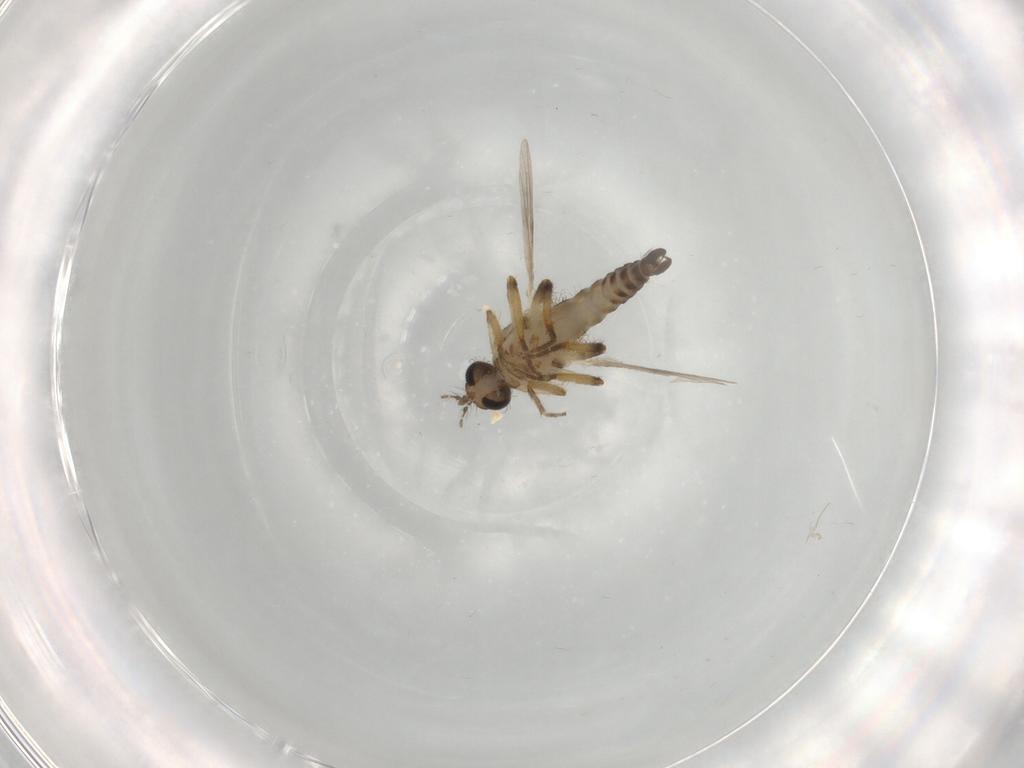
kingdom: Animalia
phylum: Arthropoda
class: Insecta
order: Diptera
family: Ceratopogonidae
